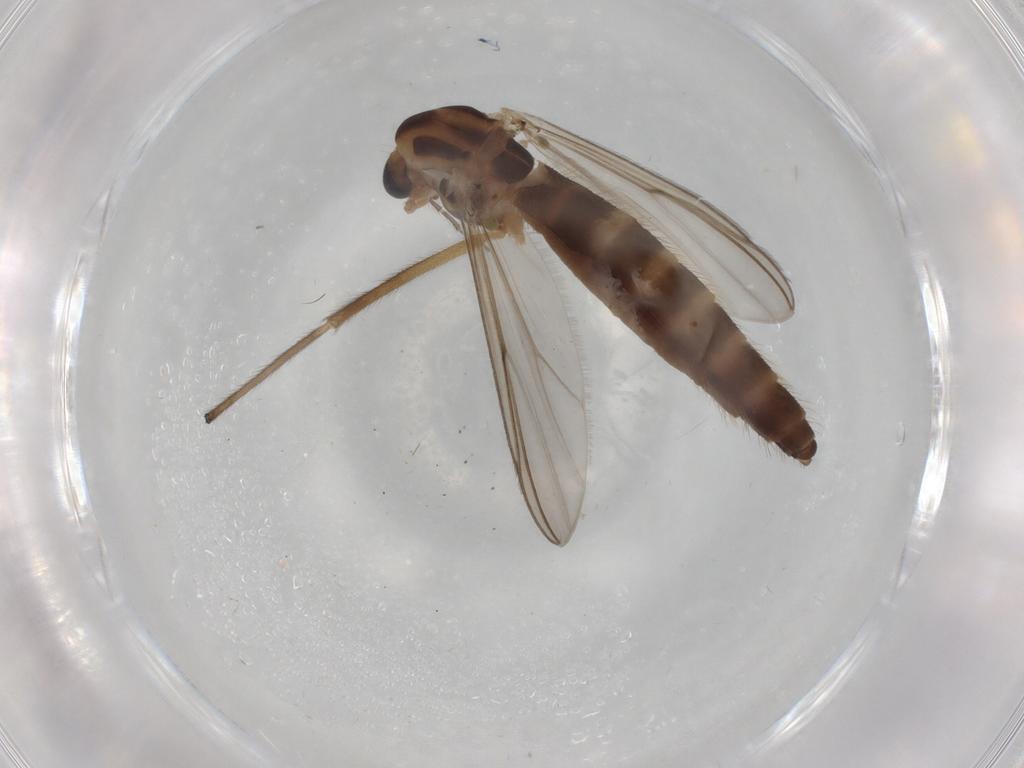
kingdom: Animalia
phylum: Arthropoda
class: Insecta
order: Diptera
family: Chironomidae
